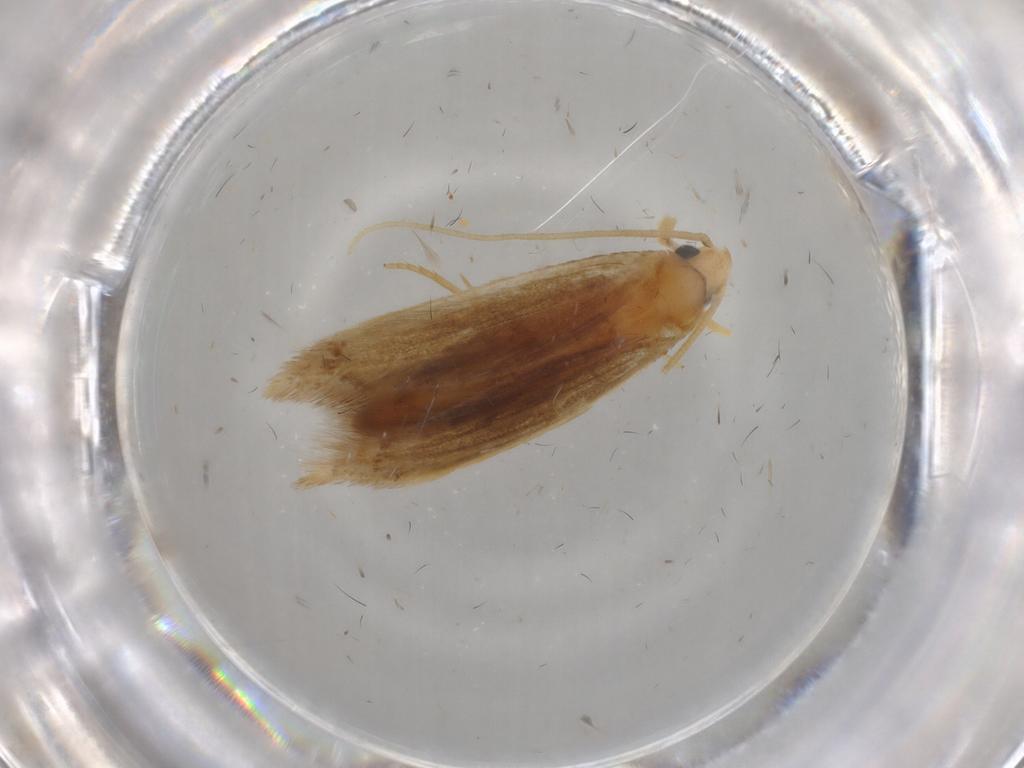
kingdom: Animalia
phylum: Arthropoda
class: Insecta
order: Lepidoptera
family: Tineidae
